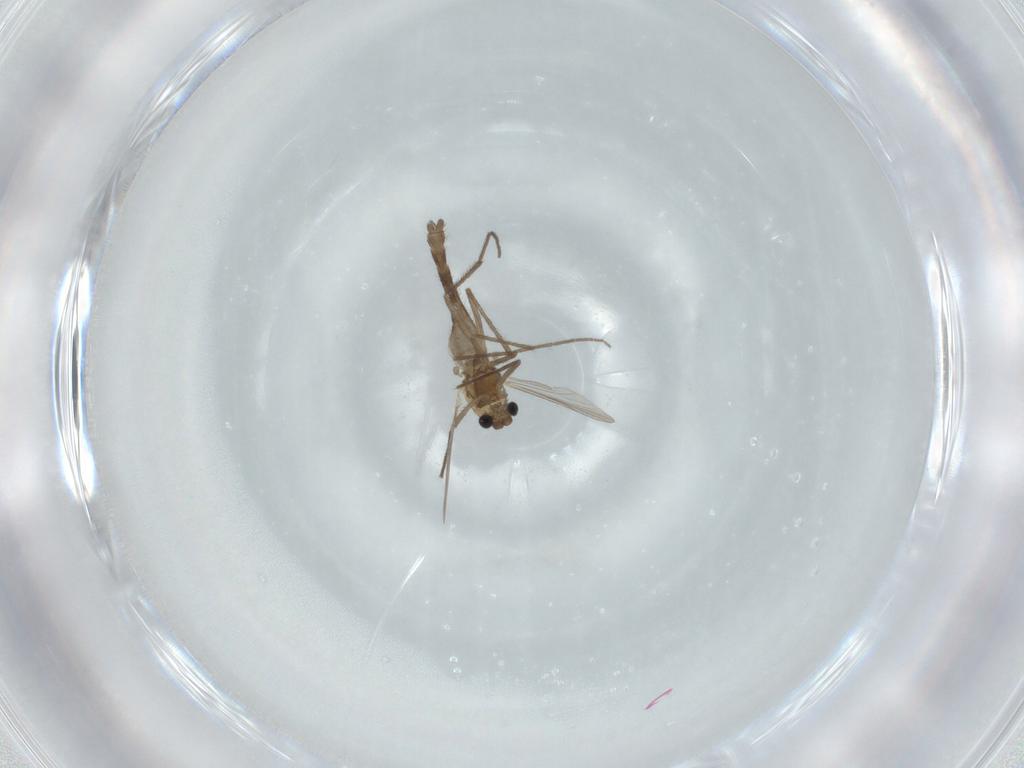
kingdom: Animalia
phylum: Arthropoda
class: Insecta
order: Diptera
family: Chironomidae
